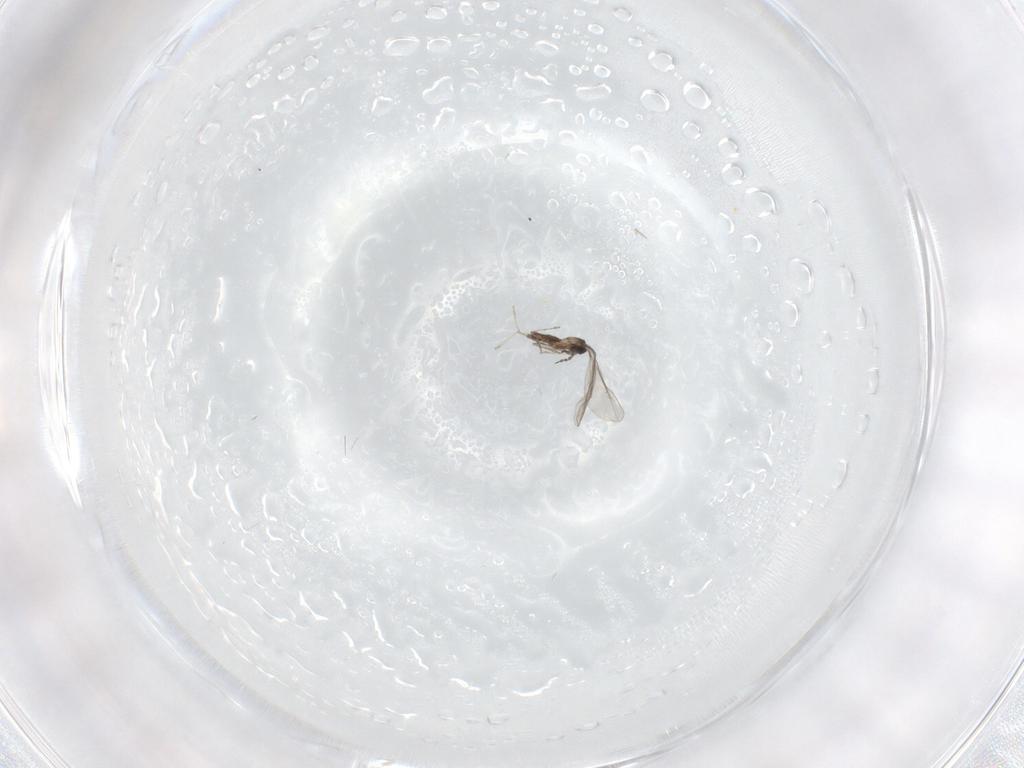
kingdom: Animalia
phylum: Arthropoda
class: Insecta
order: Diptera
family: Cecidomyiidae
